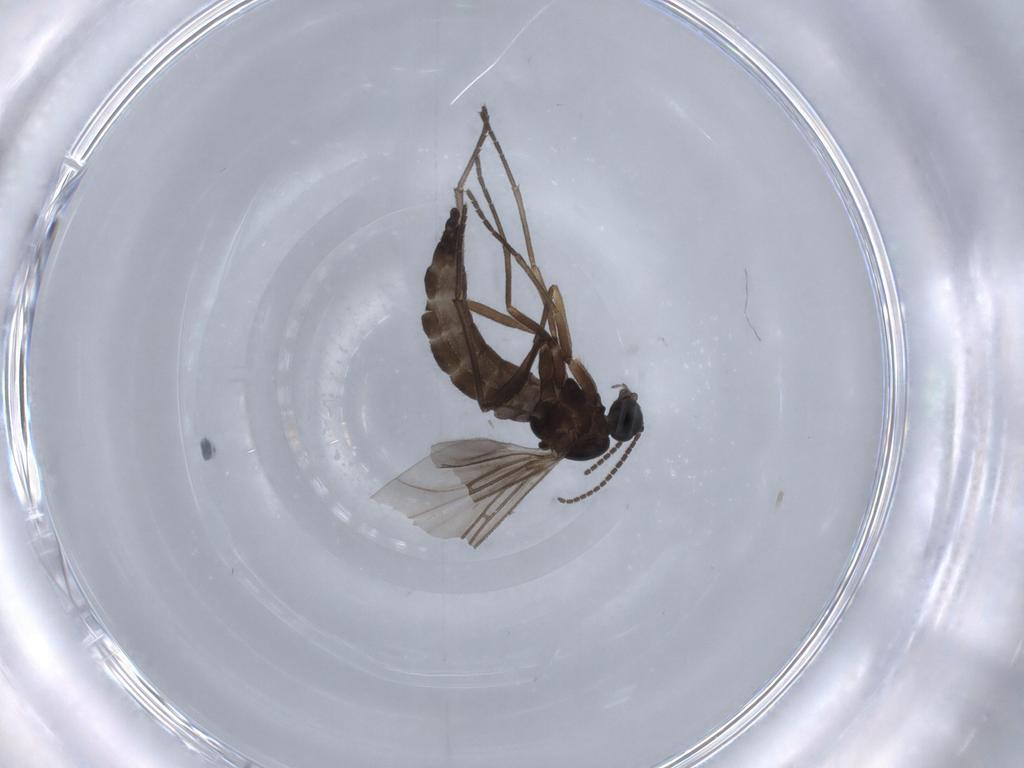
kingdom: Animalia
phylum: Arthropoda
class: Insecta
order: Diptera
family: Sciaridae
